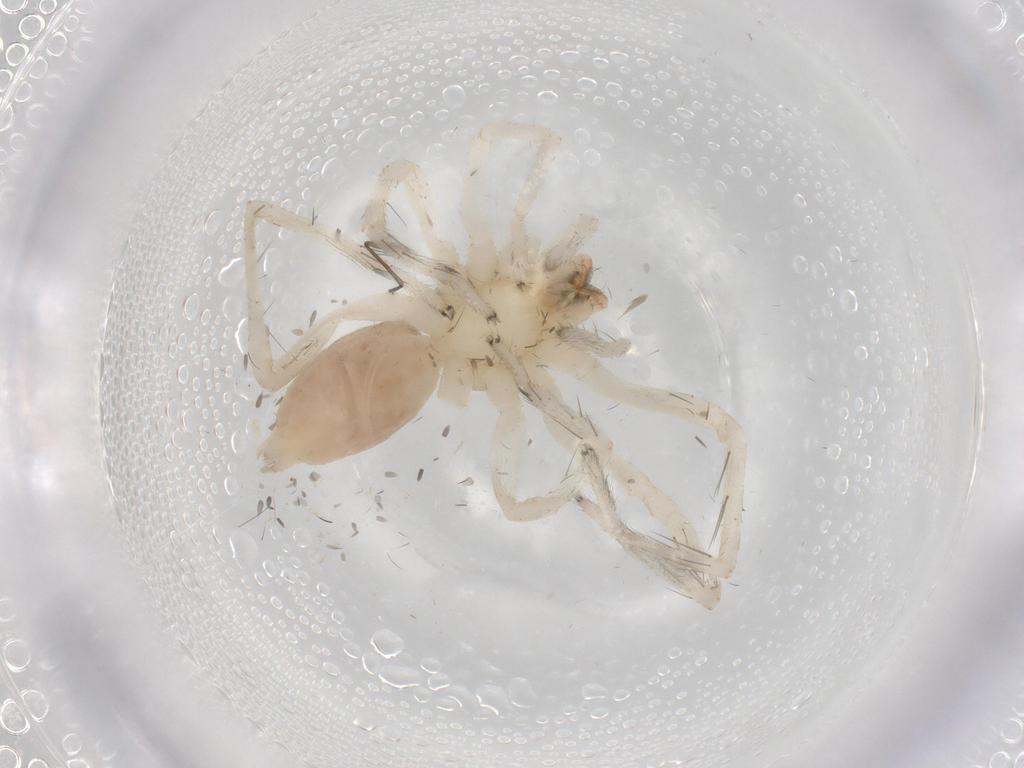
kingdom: Animalia
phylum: Arthropoda
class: Arachnida
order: Araneae
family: Anyphaenidae
